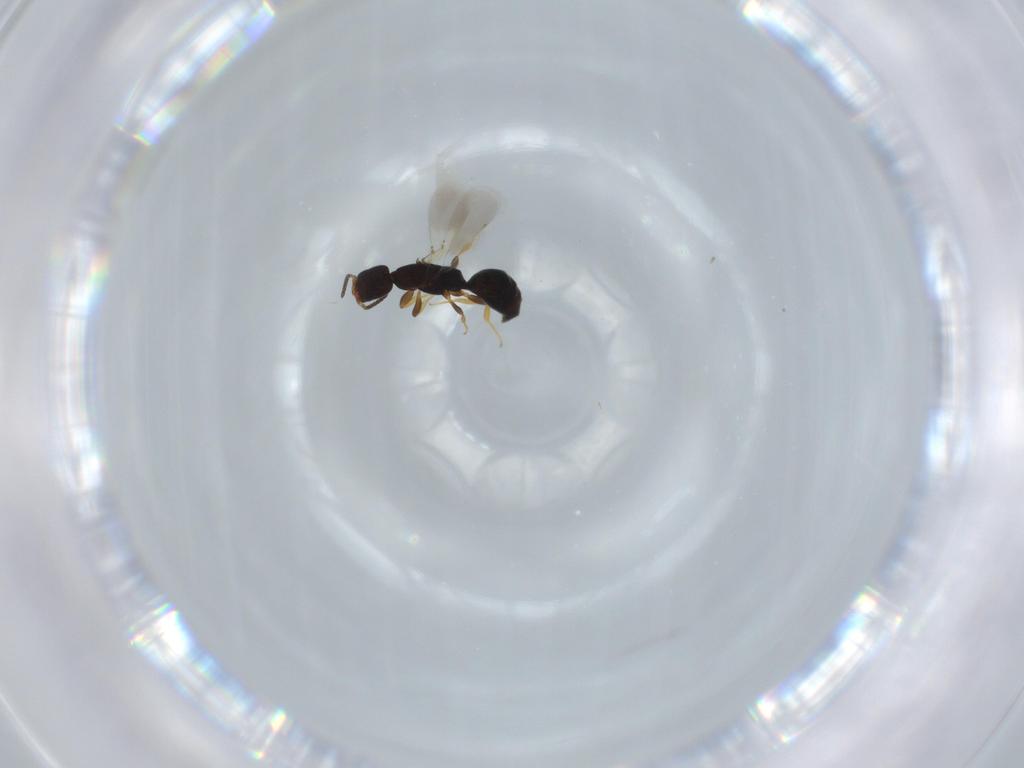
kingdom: Animalia
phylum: Arthropoda
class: Insecta
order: Hymenoptera
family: Bethylidae
